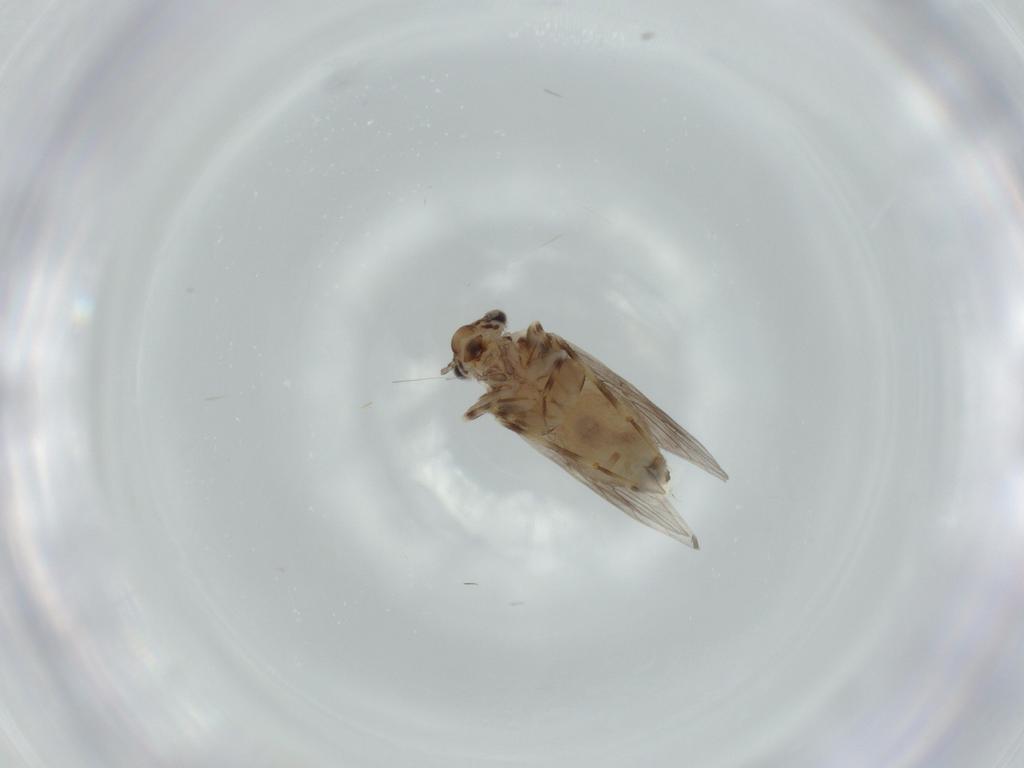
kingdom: Animalia
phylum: Arthropoda
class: Insecta
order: Psocodea
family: Lepidopsocidae
